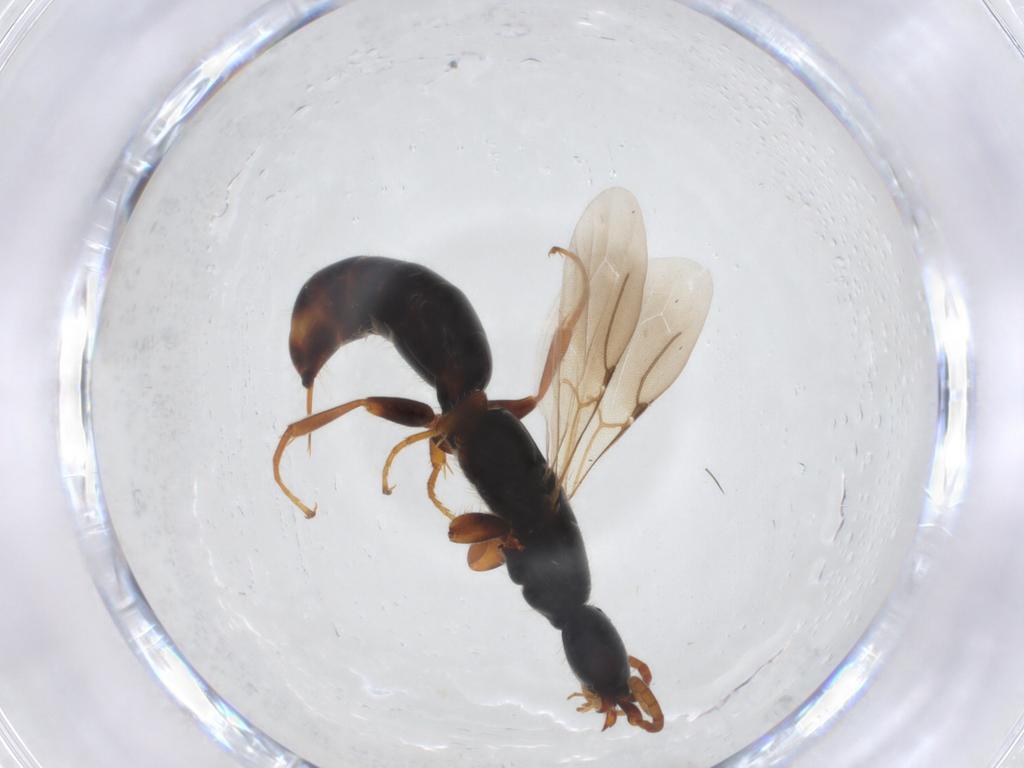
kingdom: Animalia
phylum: Arthropoda
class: Insecta
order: Hymenoptera
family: Bethylidae
